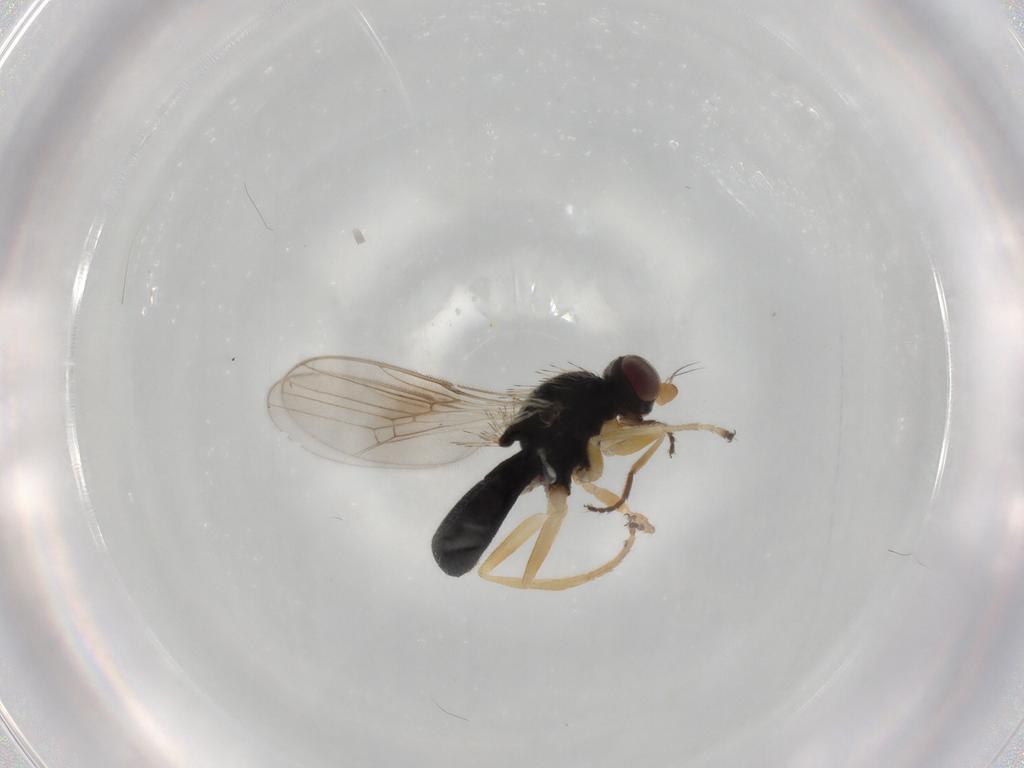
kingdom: Animalia
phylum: Arthropoda
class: Insecta
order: Diptera
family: Chloropidae
